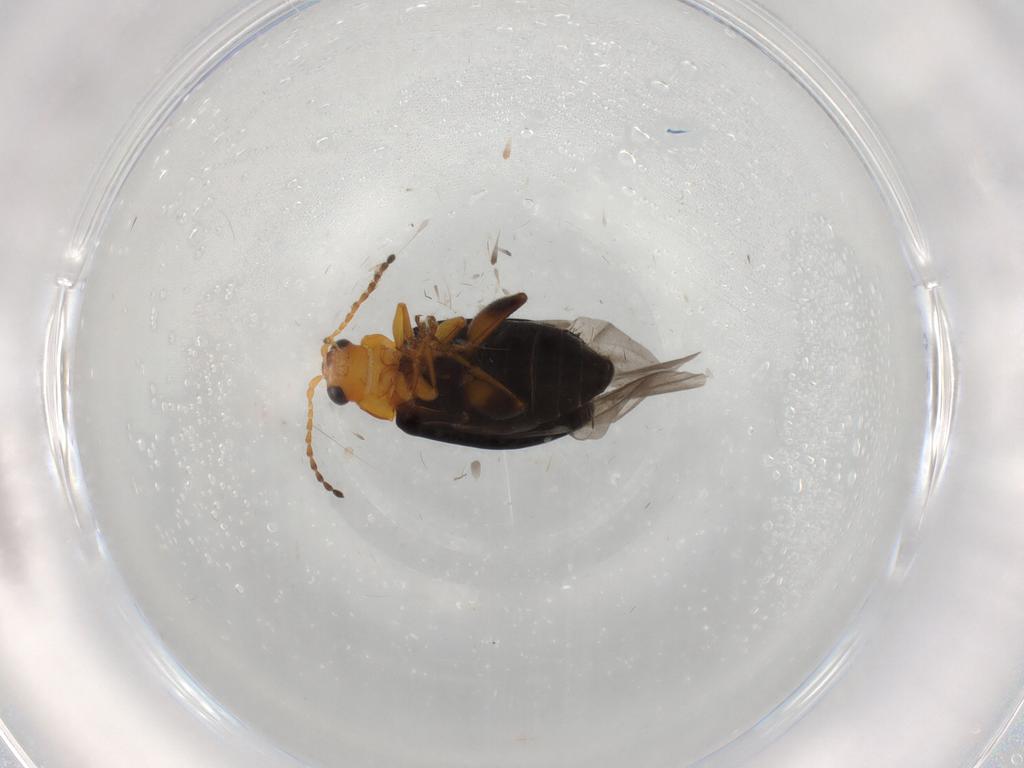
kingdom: Animalia
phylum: Arthropoda
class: Insecta
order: Coleoptera
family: Chrysomelidae
